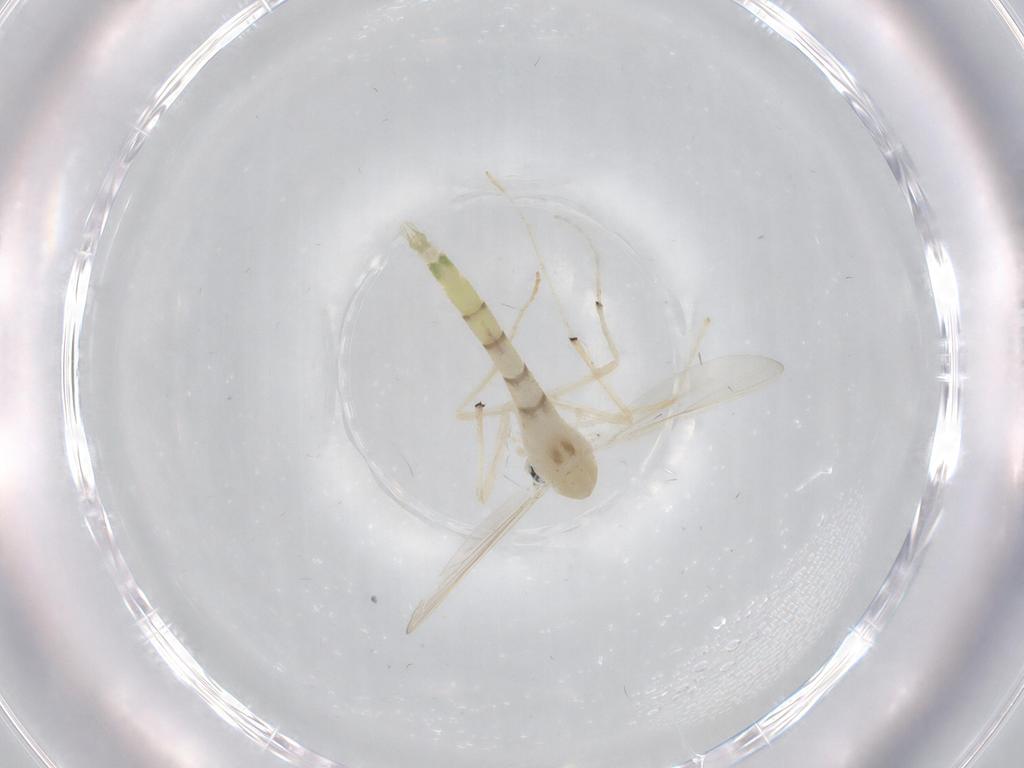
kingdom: Animalia
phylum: Arthropoda
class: Insecta
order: Diptera
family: Chironomidae
